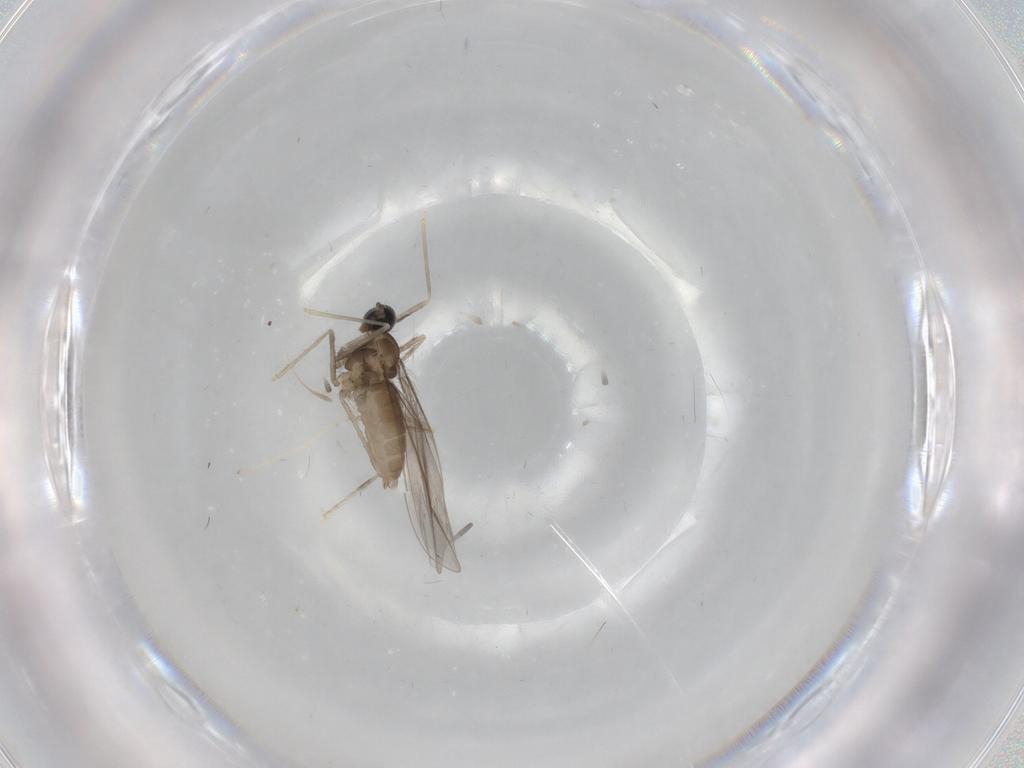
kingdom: Animalia
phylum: Arthropoda
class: Insecta
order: Diptera
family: Cecidomyiidae
